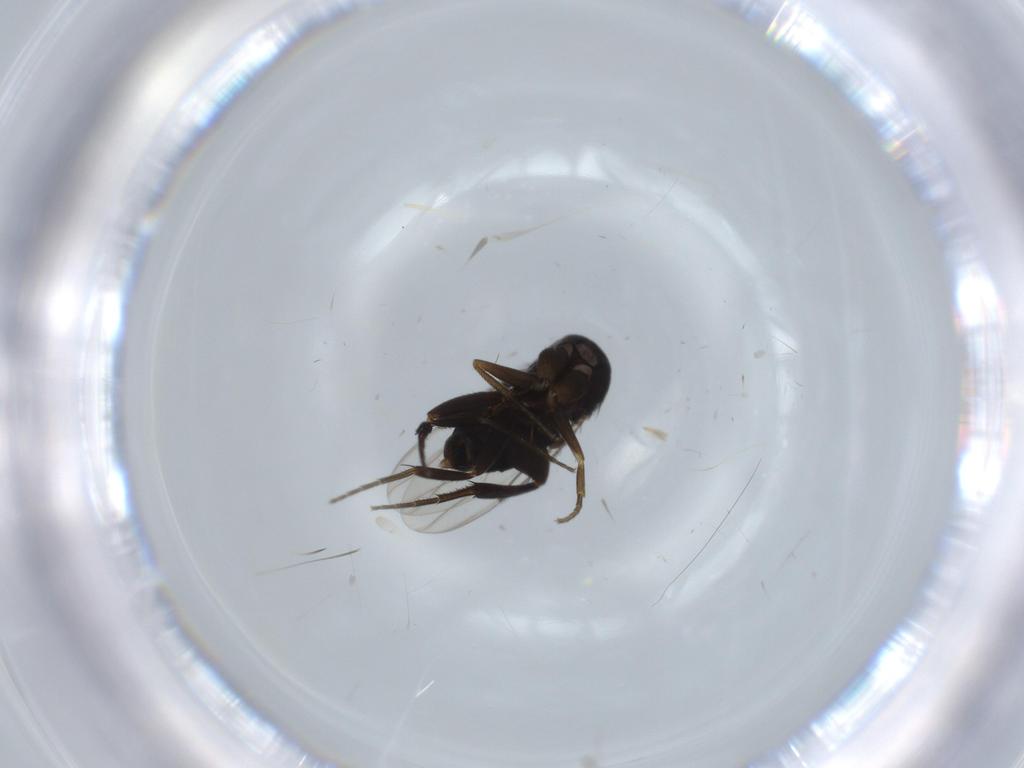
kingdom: Animalia
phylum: Arthropoda
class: Insecta
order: Diptera
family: Phoridae
